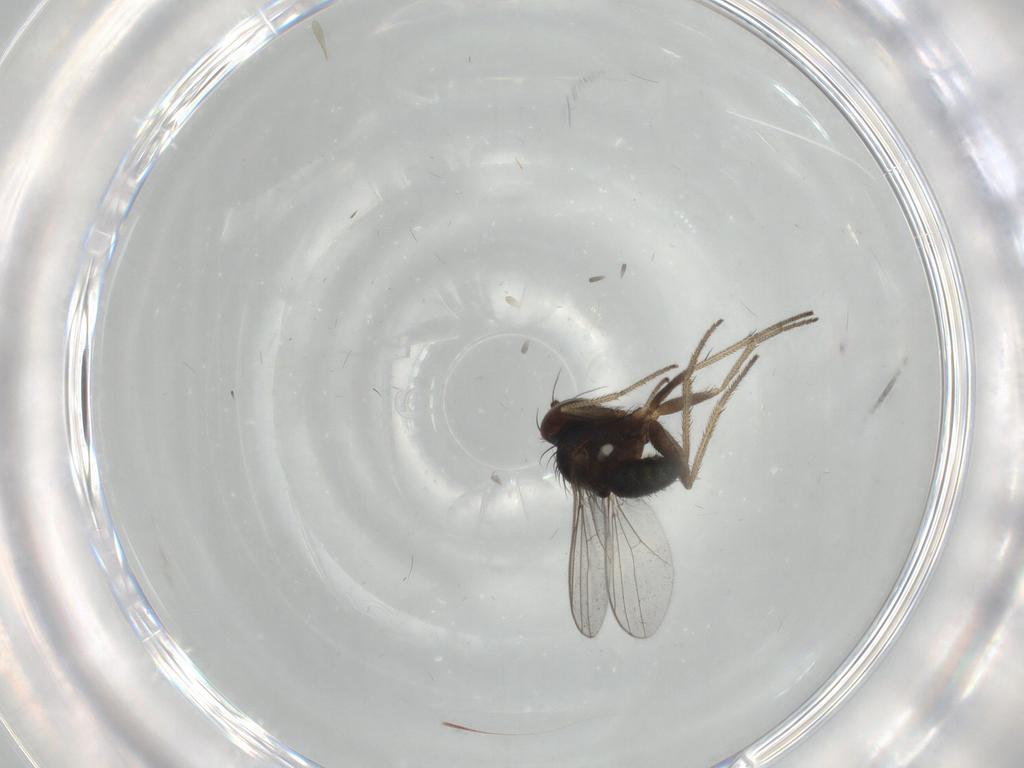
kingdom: Animalia
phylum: Arthropoda
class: Insecta
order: Diptera
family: Dolichopodidae
